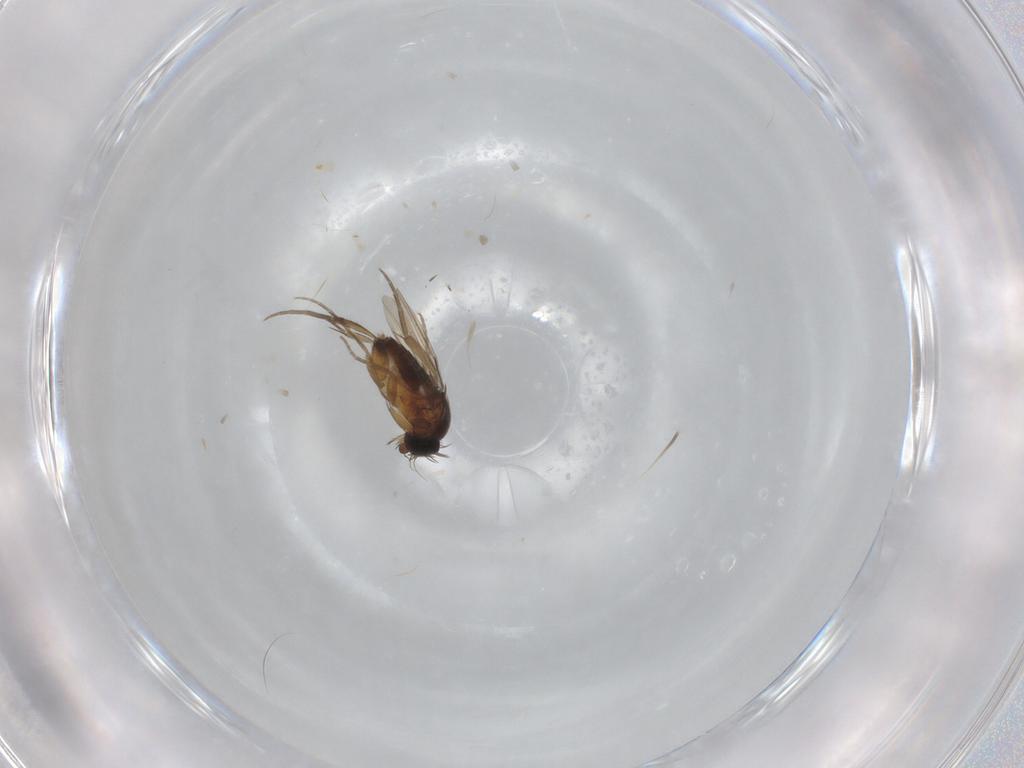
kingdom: Animalia
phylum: Arthropoda
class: Insecta
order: Diptera
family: Phoridae
